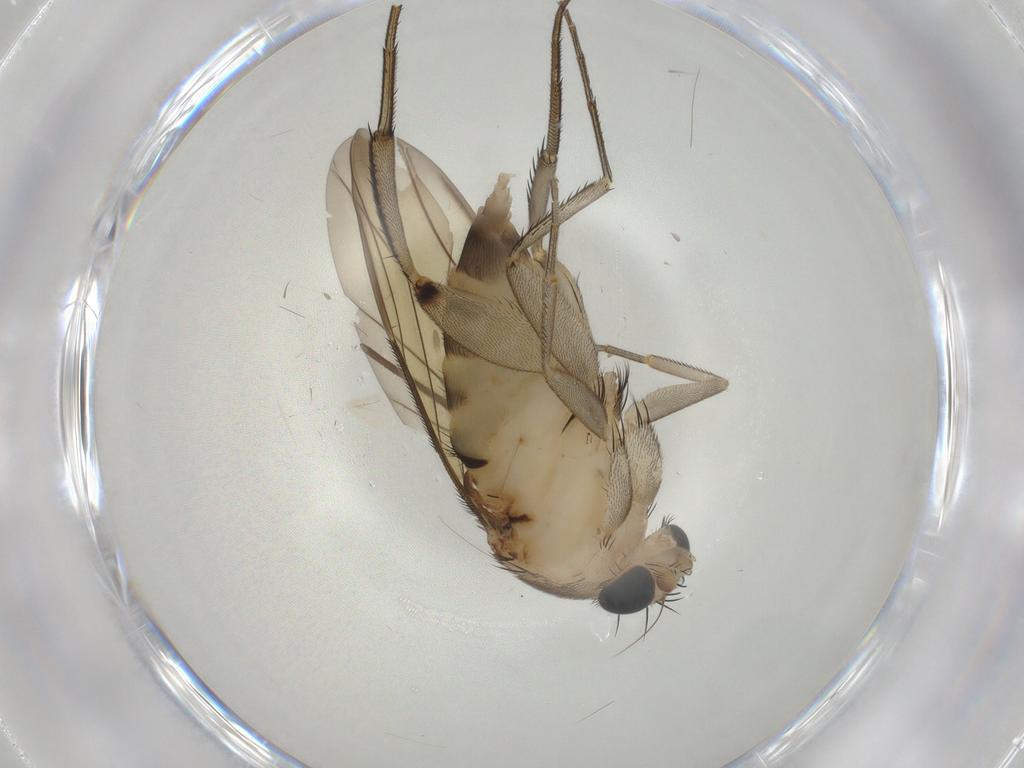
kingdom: Animalia
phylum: Arthropoda
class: Insecta
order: Diptera
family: Phoridae
